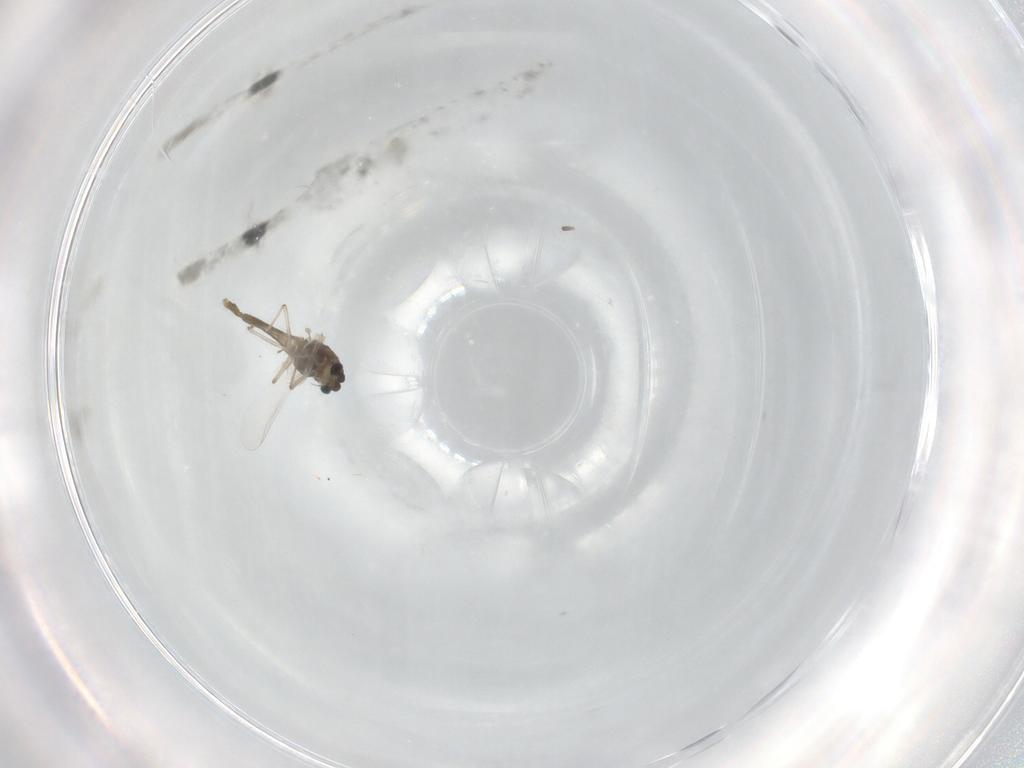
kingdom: Animalia
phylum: Arthropoda
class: Insecta
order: Diptera
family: Chironomidae
